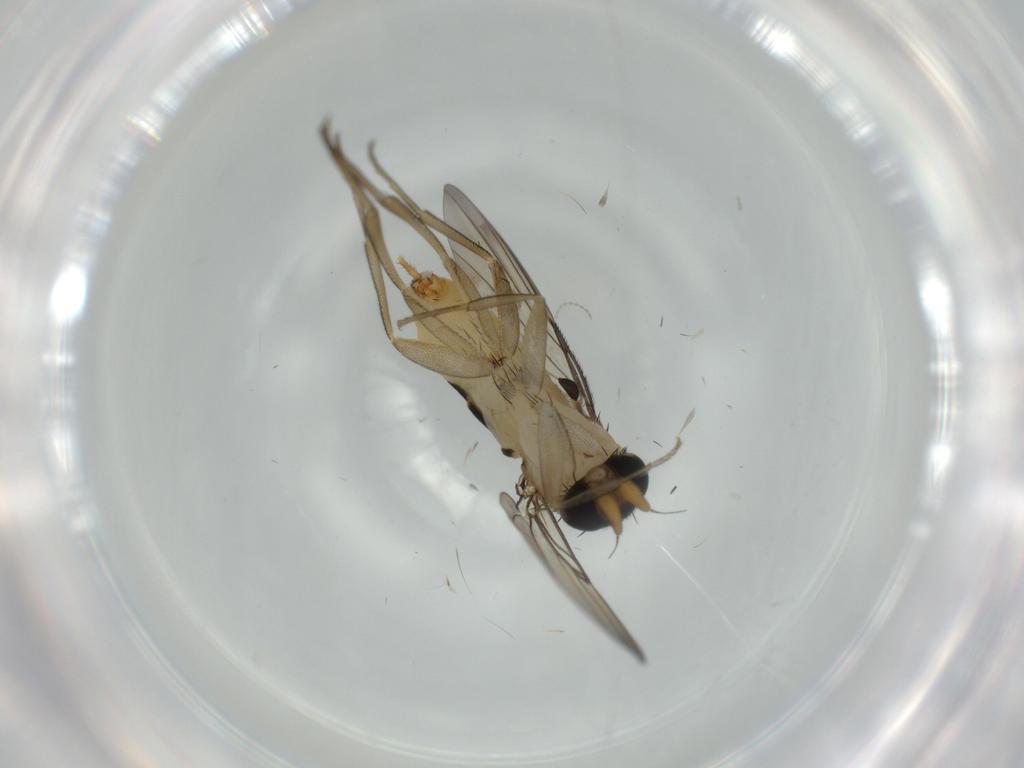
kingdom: Animalia
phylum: Arthropoda
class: Insecta
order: Diptera
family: Phoridae
